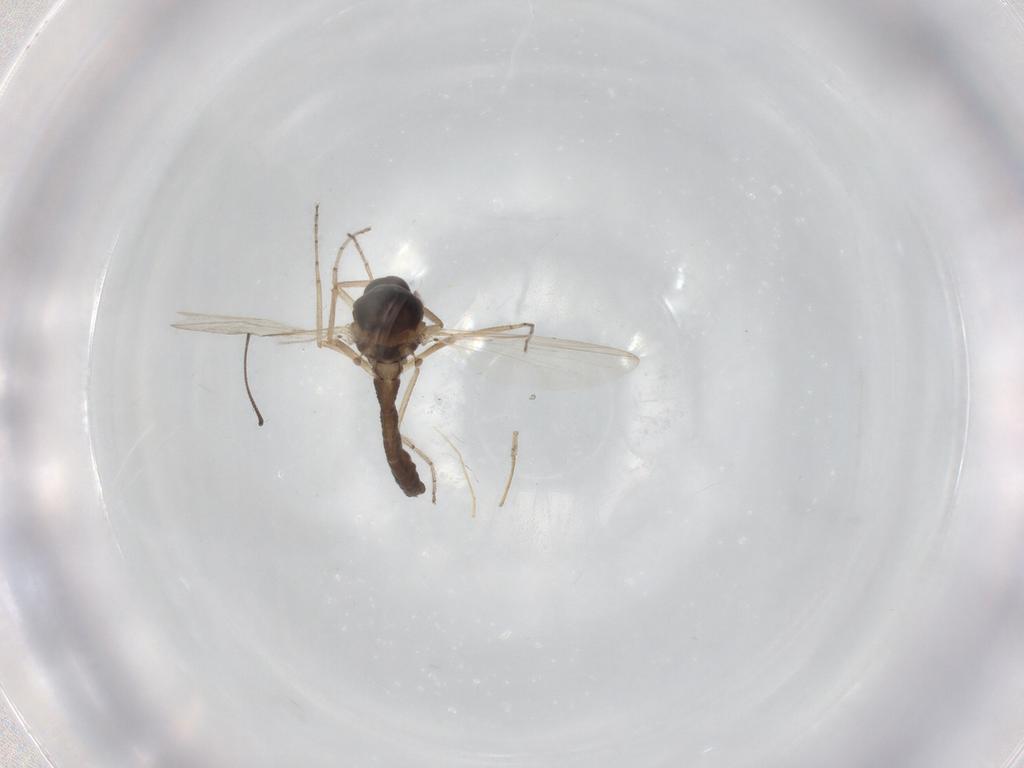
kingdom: Animalia
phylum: Arthropoda
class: Insecta
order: Diptera
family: Ceratopogonidae
